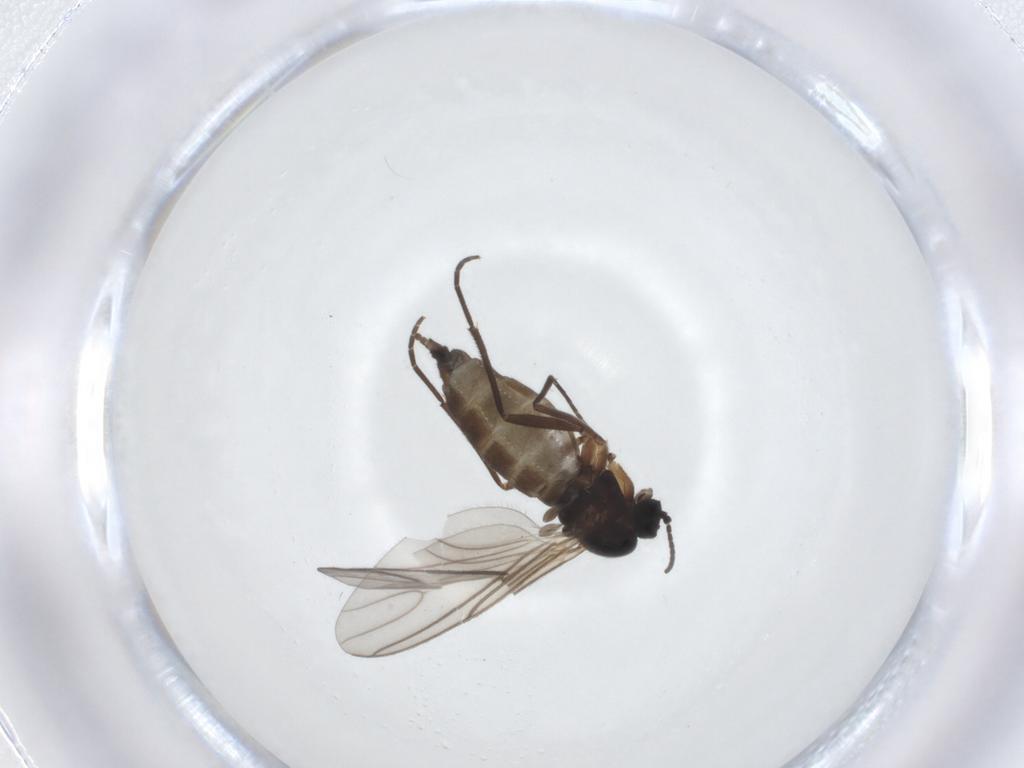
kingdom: Animalia
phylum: Arthropoda
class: Insecta
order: Diptera
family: Sciaridae
